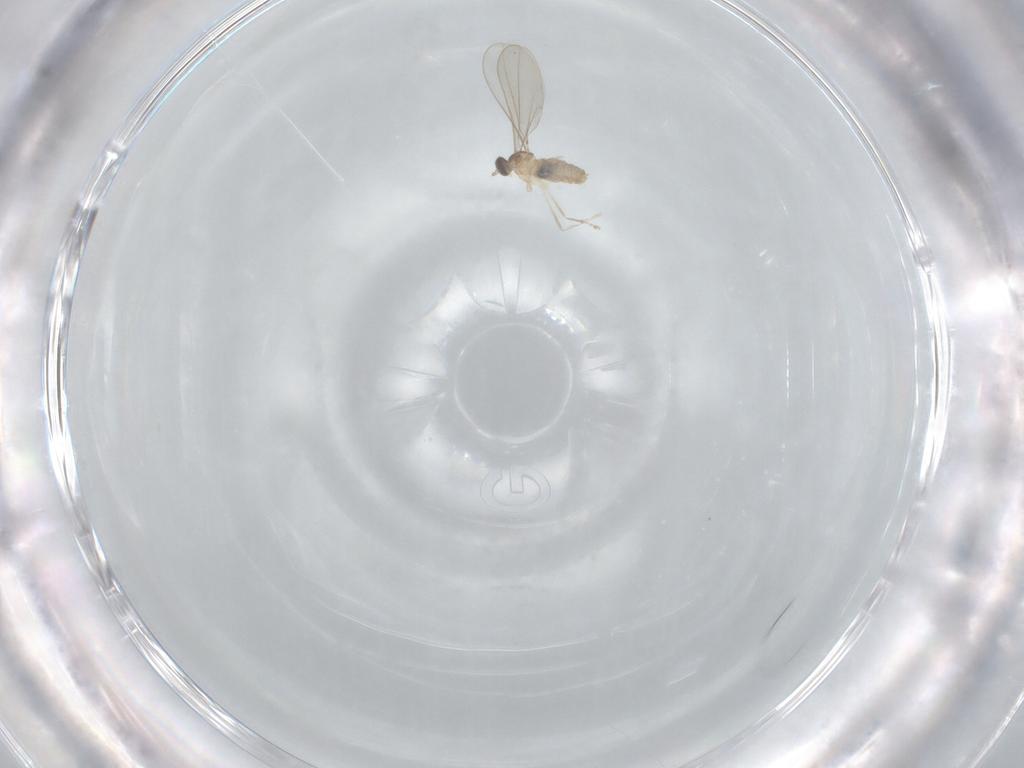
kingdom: Animalia
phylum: Arthropoda
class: Insecta
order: Diptera
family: Cecidomyiidae
